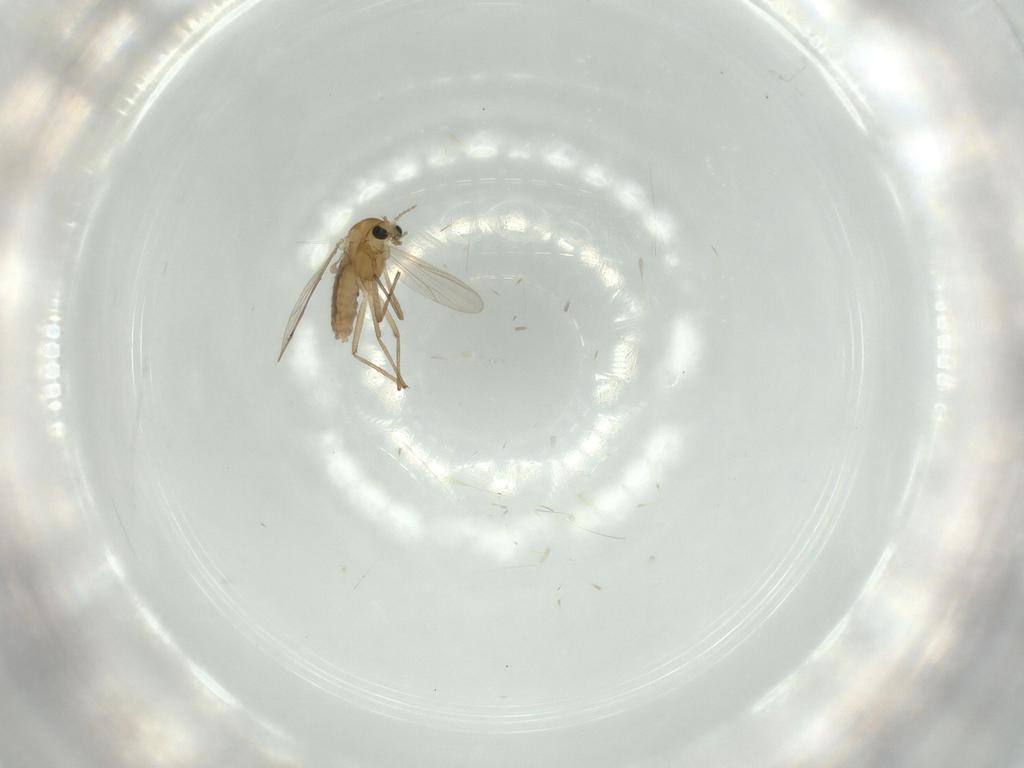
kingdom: Animalia
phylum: Arthropoda
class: Insecta
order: Diptera
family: Chironomidae
